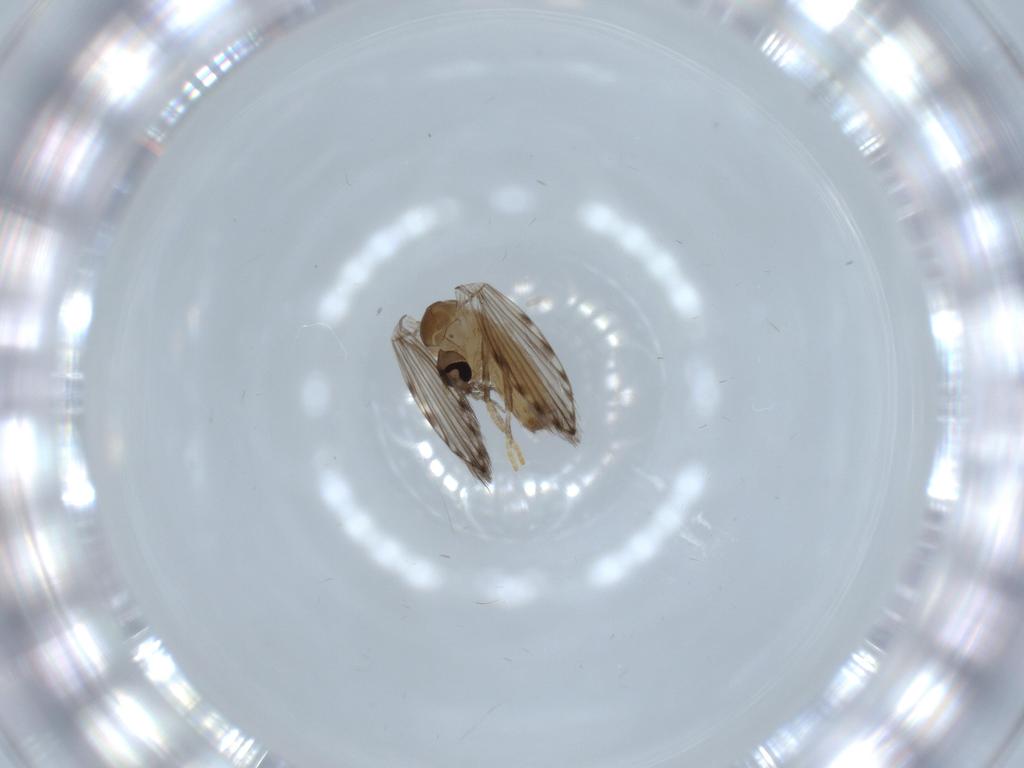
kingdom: Animalia
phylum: Arthropoda
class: Insecta
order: Diptera
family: Psychodidae
